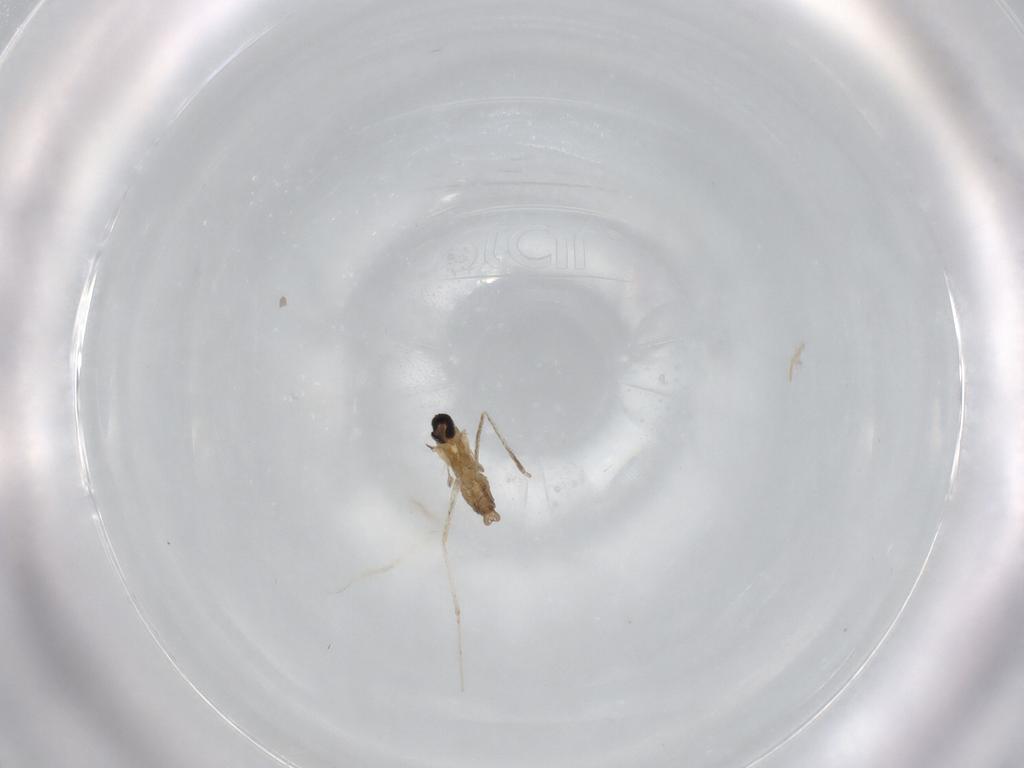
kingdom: Animalia
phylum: Arthropoda
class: Insecta
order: Diptera
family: Cecidomyiidae
